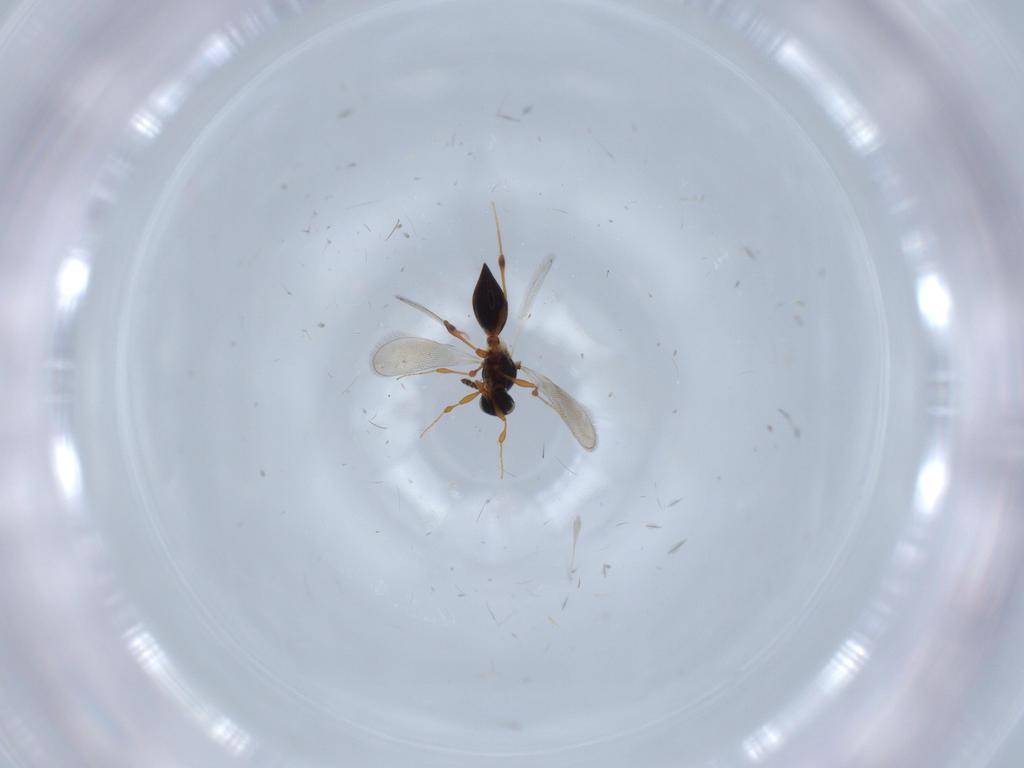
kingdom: Animalia
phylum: Arthropoda
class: Insecta
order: Hymenoptera
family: Platygastridae
